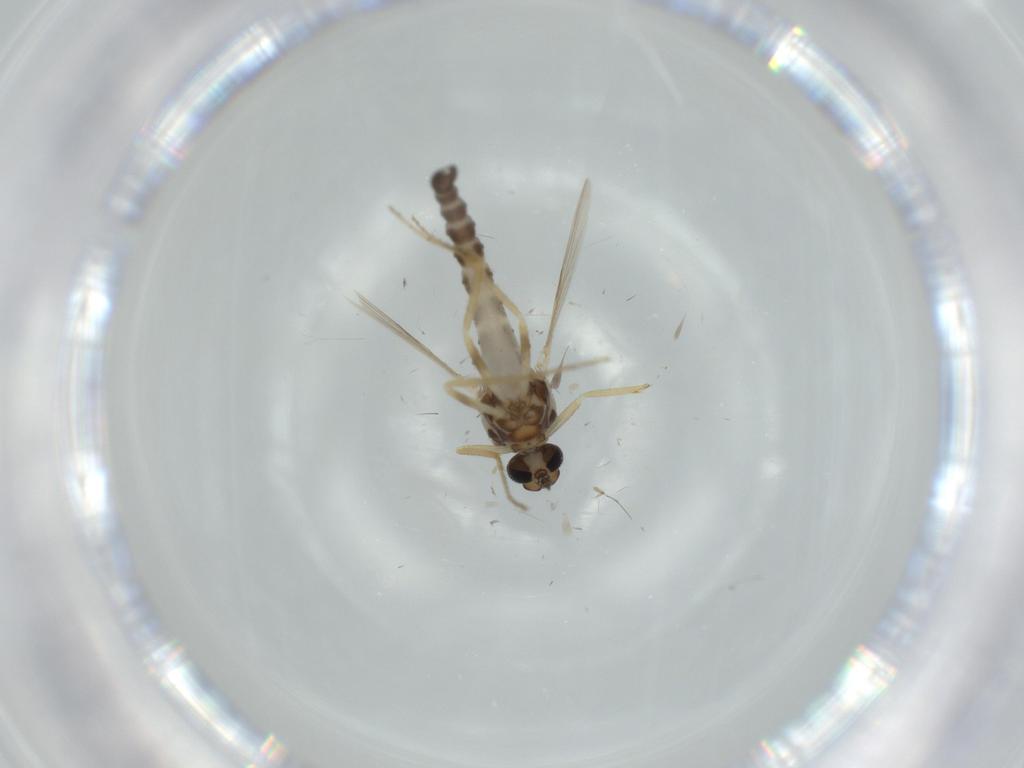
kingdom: Animalia
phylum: Arthropoda
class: Insecta
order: Diptera
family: Ceratopogonidae
